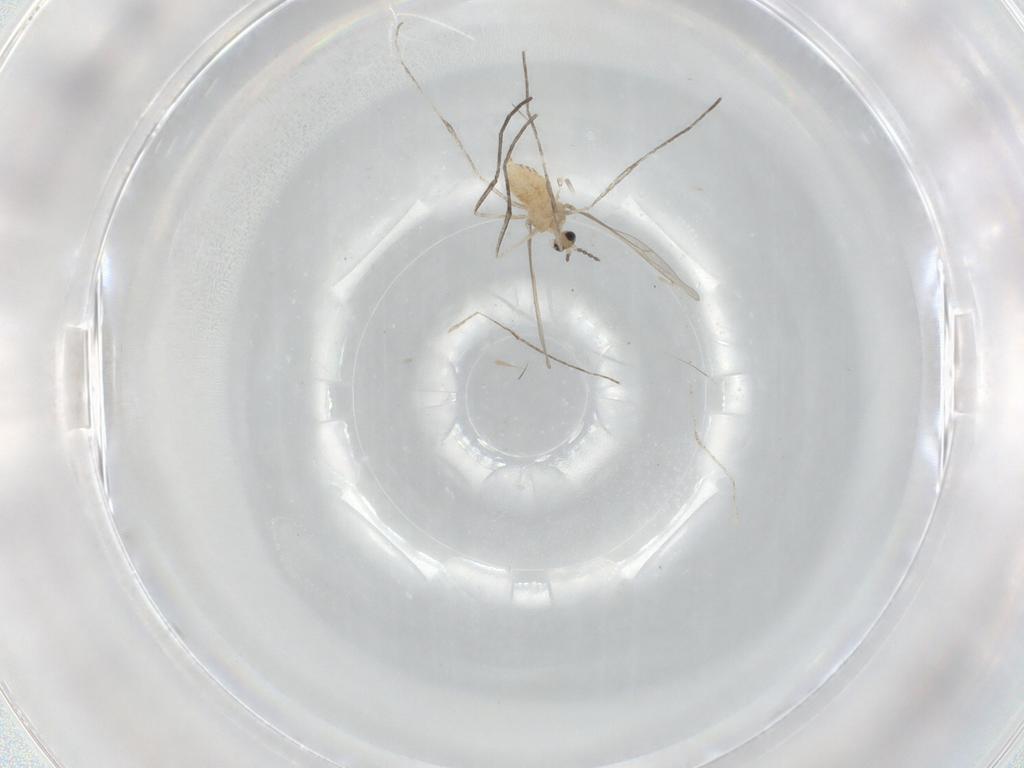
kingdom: Animalia
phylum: Arthropoda
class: Insecta
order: Diptera
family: Cecidomyiidae
